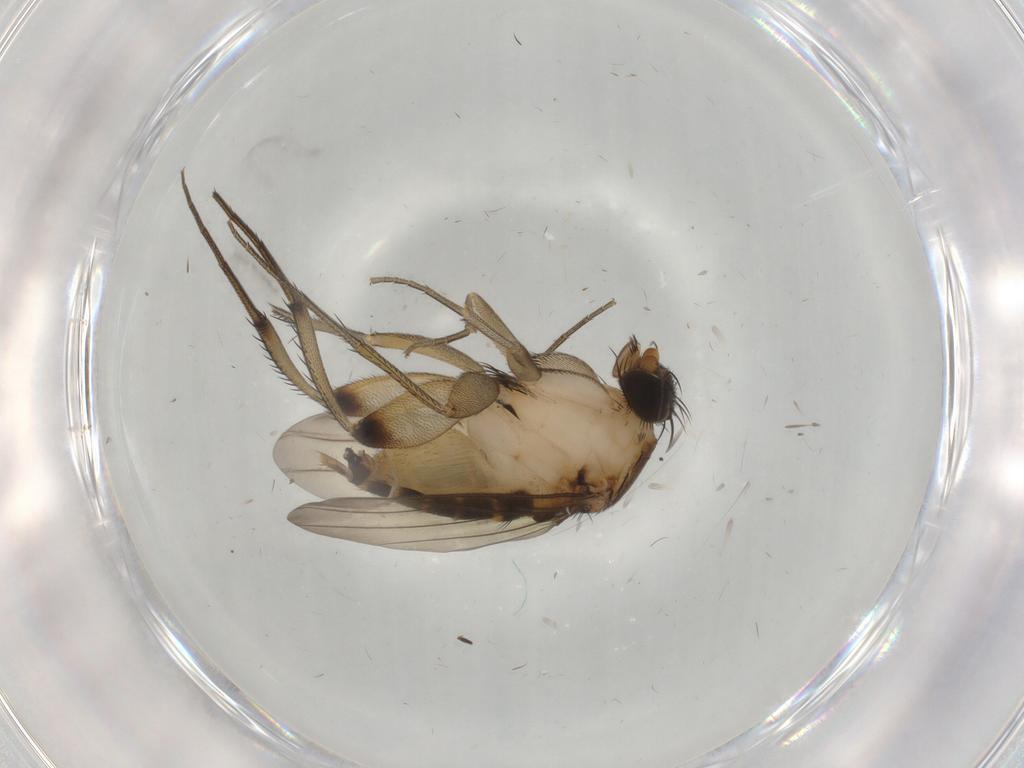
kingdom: Animalia
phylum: Arthropoda
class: Insecta
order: Diptera
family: Phoridae
